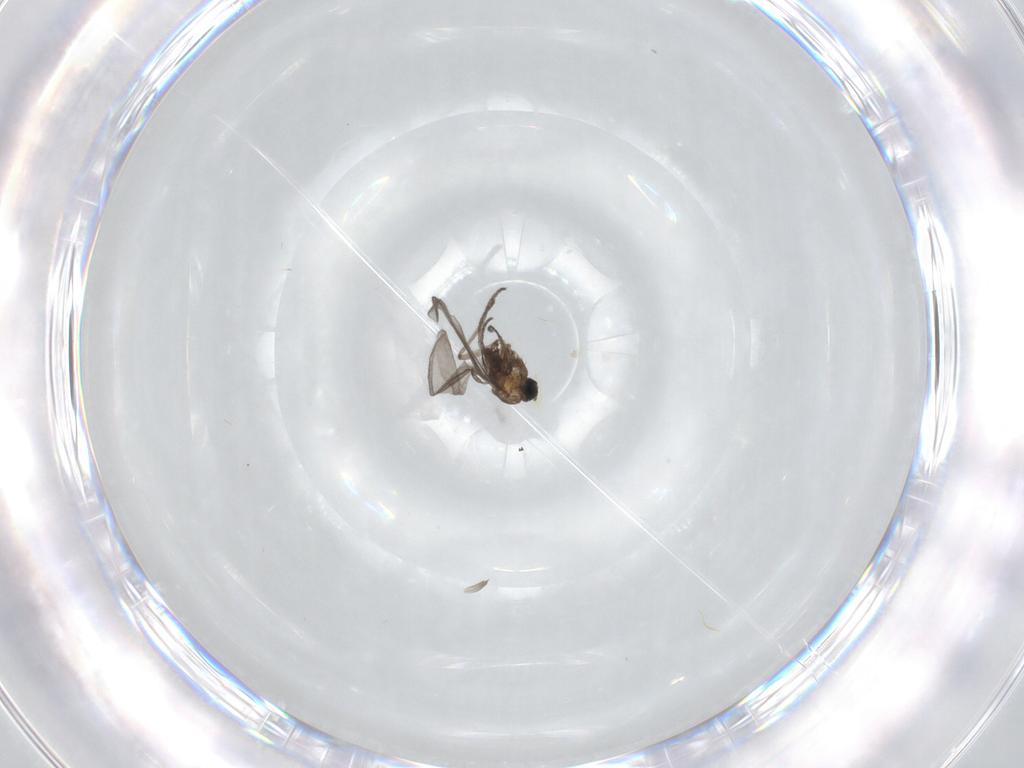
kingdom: Animalia
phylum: Arthropoda
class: Insecta
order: Diptera
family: Sciaridae
